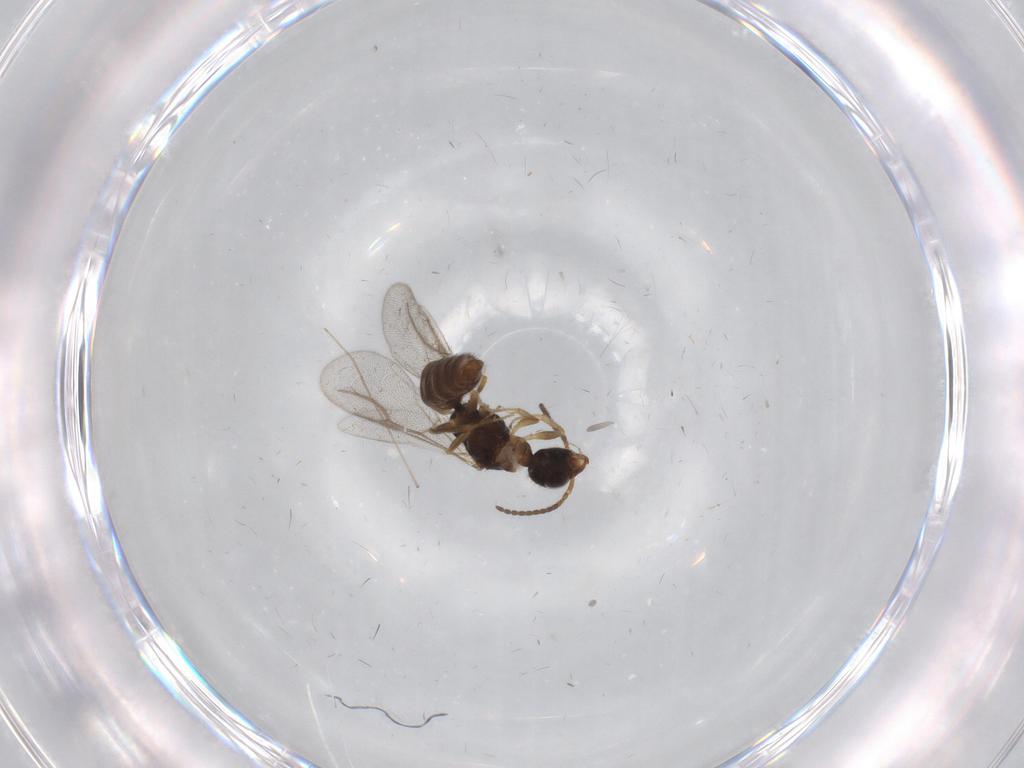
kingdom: Animalia
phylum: Arthropoda
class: Insecta
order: Hymenoptera
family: Bethylidae
